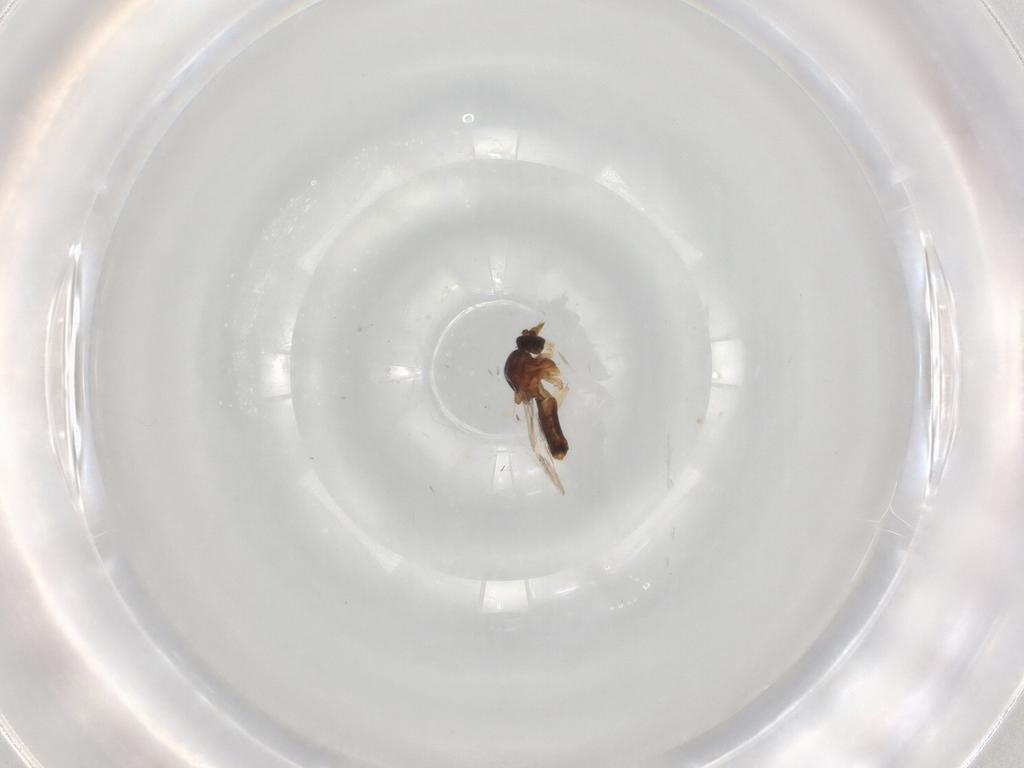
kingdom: Animalia
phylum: Arthropoda
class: Insecta
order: Diptera
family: Ceratopogonidae
